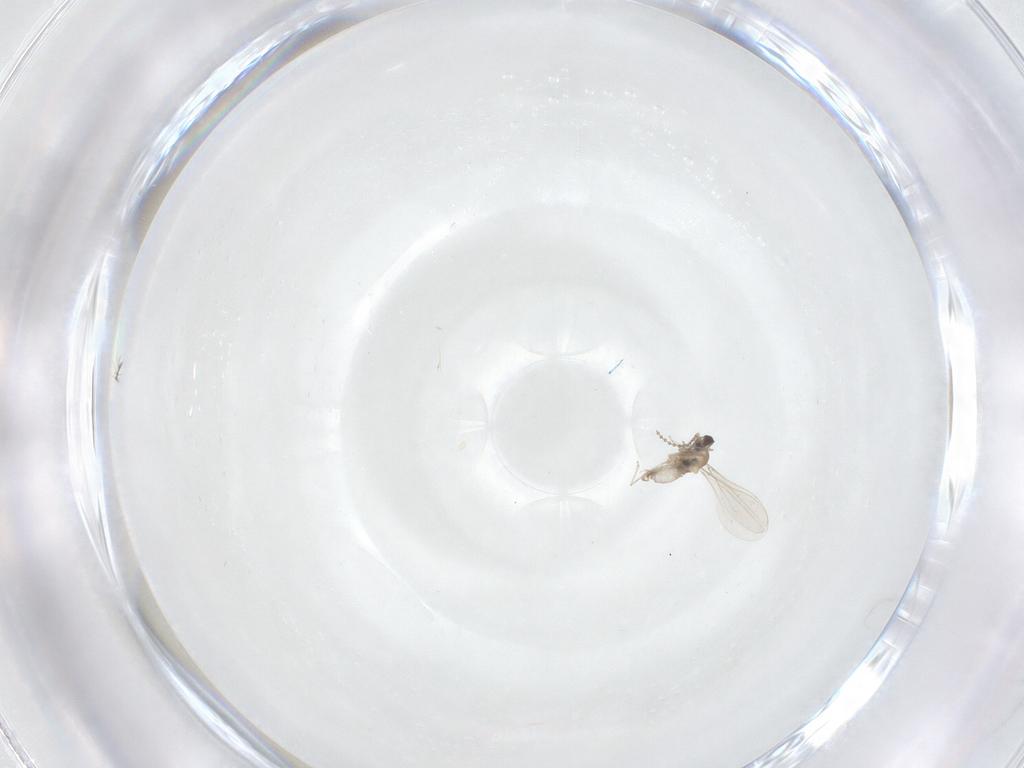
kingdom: Animalia
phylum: Arthropoda
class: Insecta
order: Diptera
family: Cecidomyiidae
